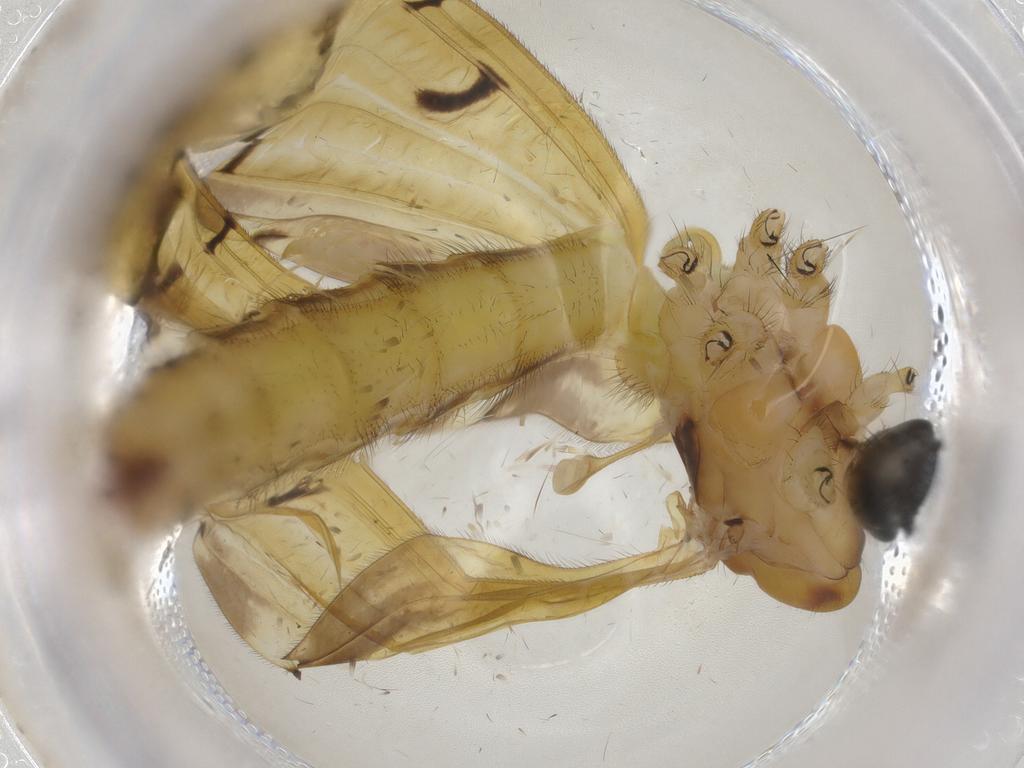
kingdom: Animalia
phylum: Arthropoda
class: Insecta
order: Diptera
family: Limoniidae
